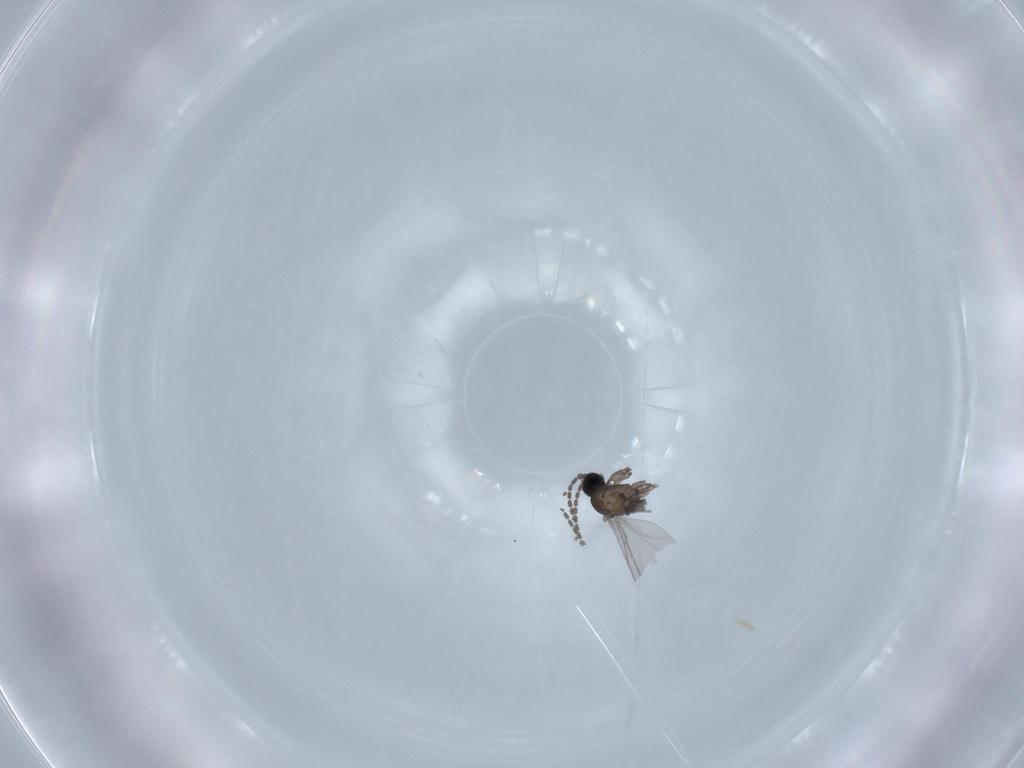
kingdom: Animalia
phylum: Arthropoda
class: Insecta
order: Diptera
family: Sciaridae
